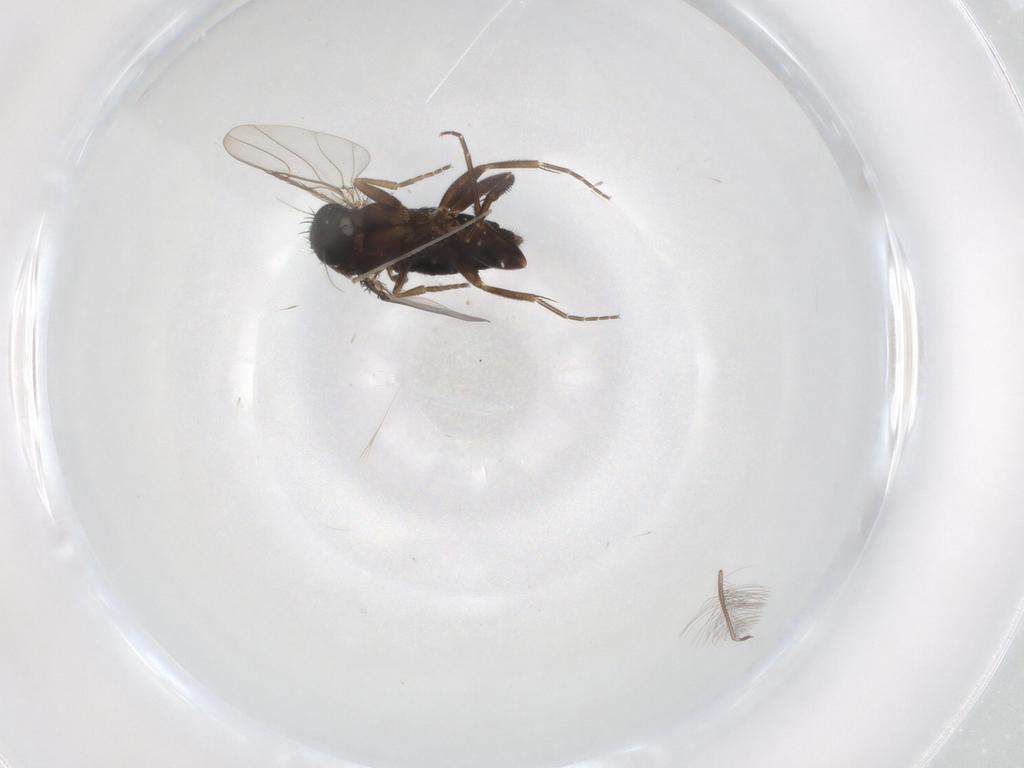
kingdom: Animalia
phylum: Arthropoda
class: Insecta
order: Diptera
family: Phoridae
